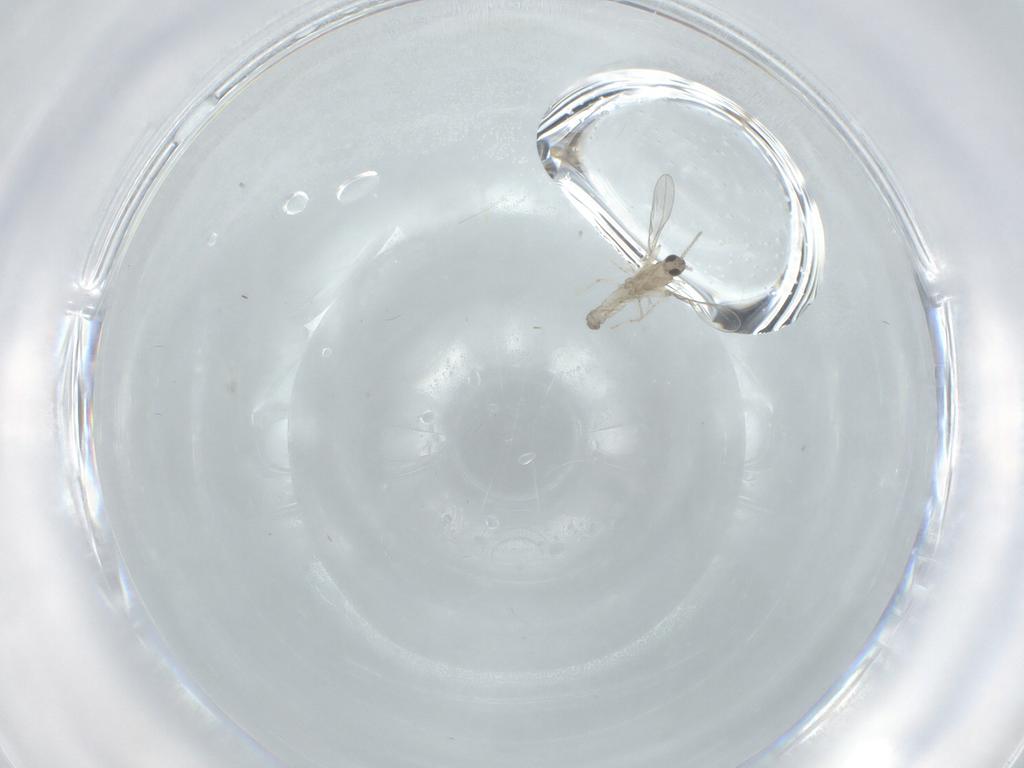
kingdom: Animalia
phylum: Arthropoda
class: Insecta
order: Diptera
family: Cecidomyiidae
